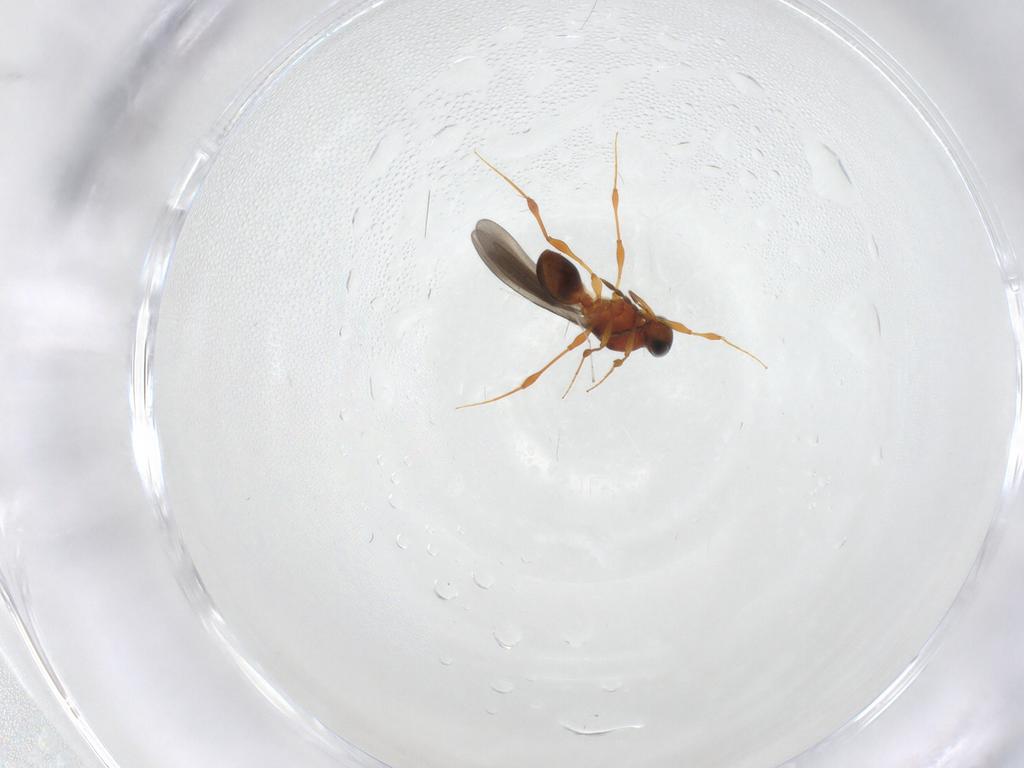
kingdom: Animalia
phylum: Arthropoda
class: Insecta
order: Hymenoptera
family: Platygastridae
